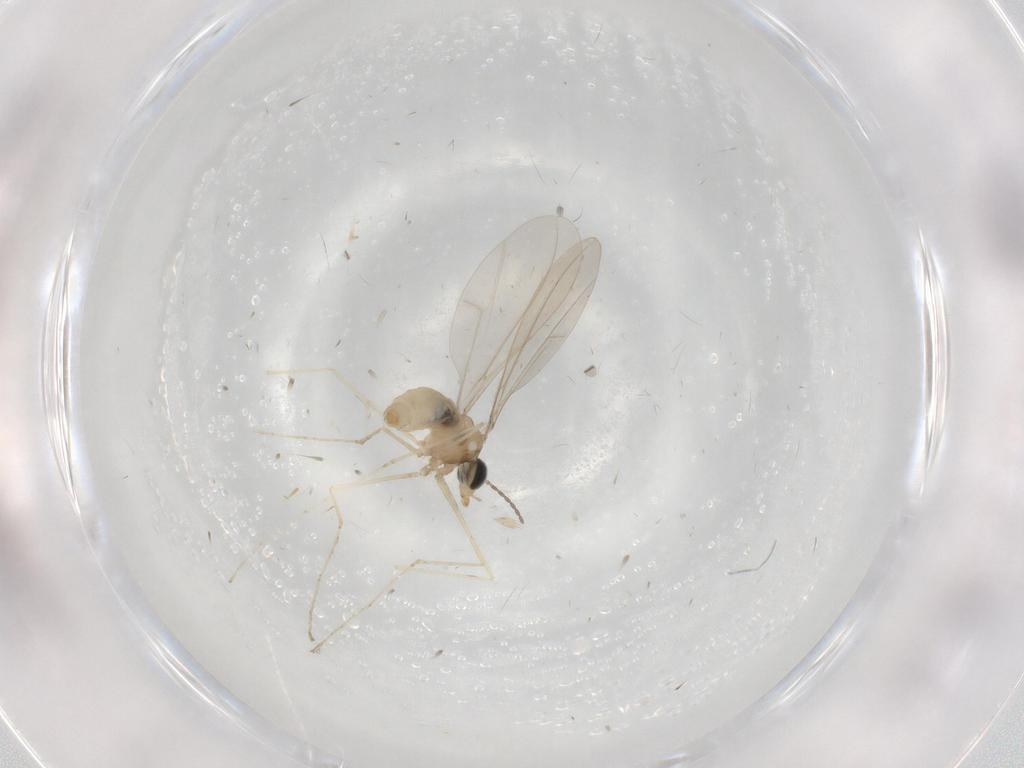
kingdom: Animalia
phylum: Arthropoda
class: Insecta
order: Diptera
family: Cecidomyiidae
